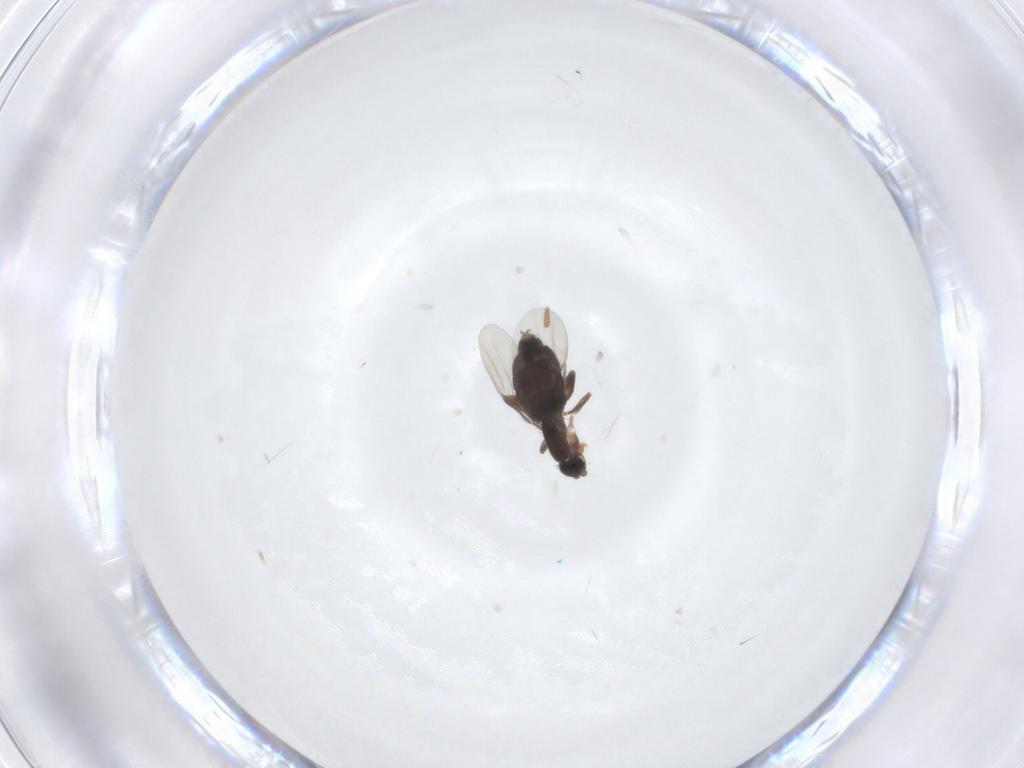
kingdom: Animalia
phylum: Arthropoda
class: Insecta
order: Diptera
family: Phoridae
